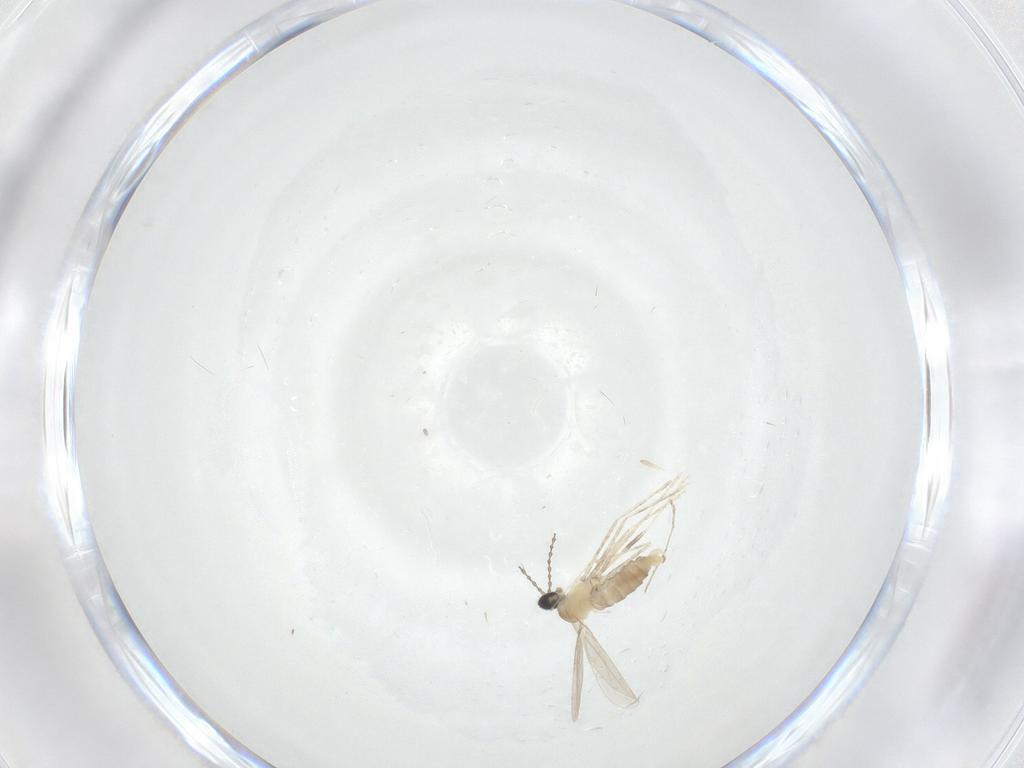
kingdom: Animalia
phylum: Arthropoda
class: Insecta
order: Diptera
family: Cecidomyiidae
